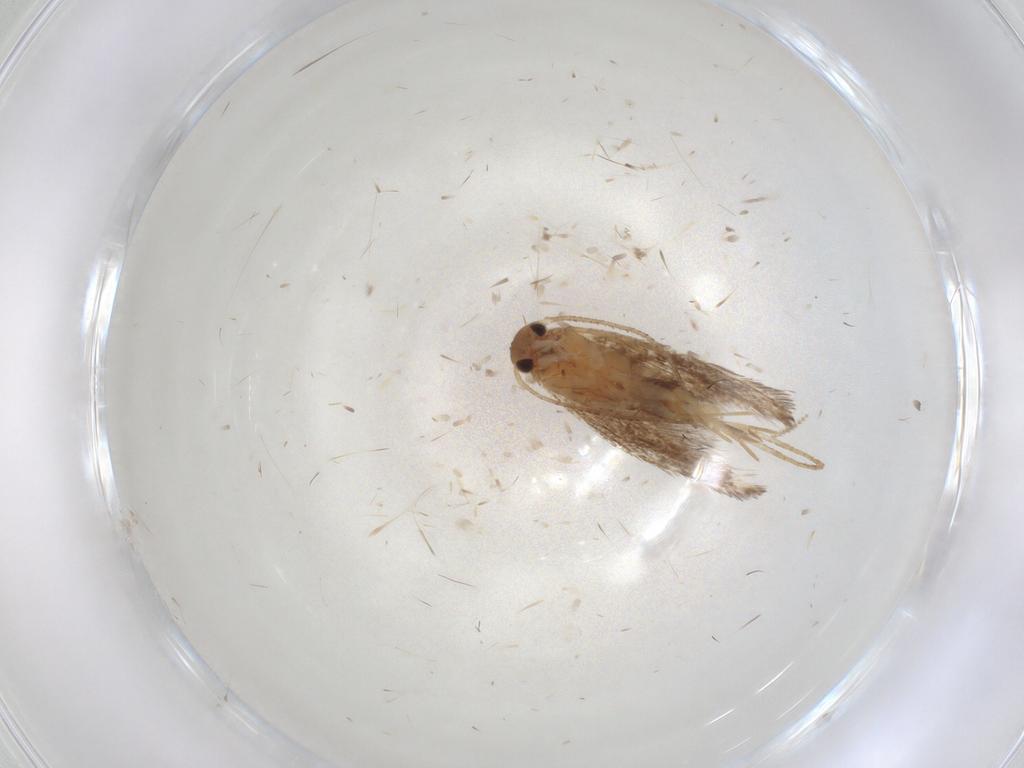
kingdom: Animalia
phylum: Arthropoda
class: Insecta
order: Lepidoptera
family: Elachistidae
